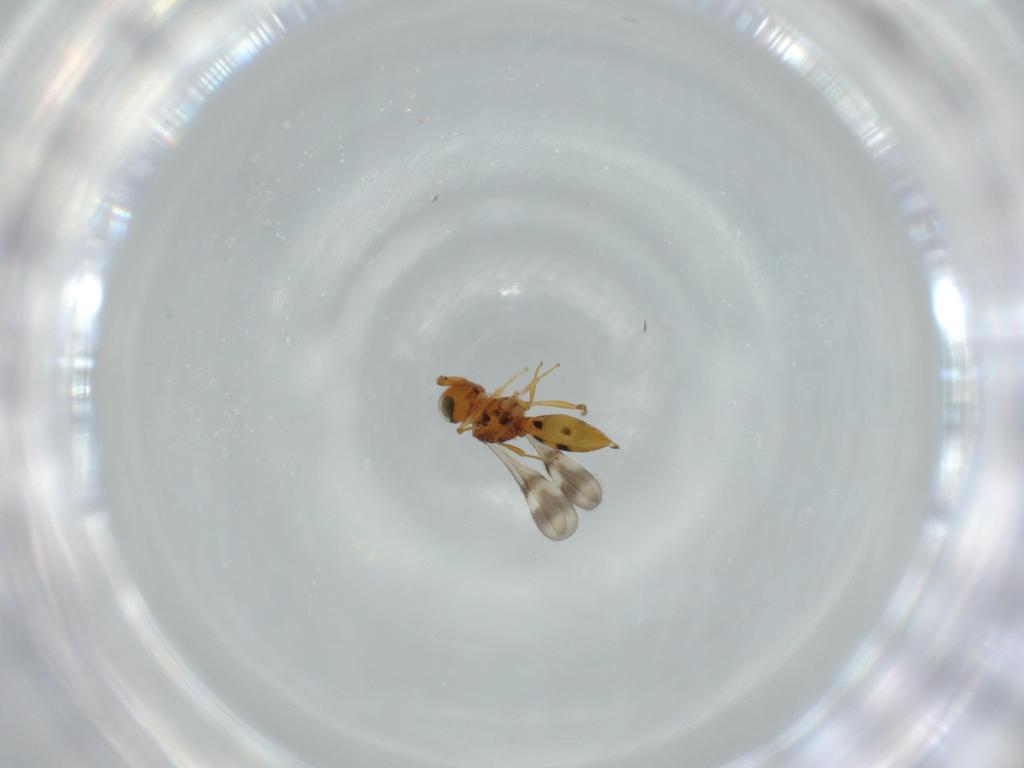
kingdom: Animalia
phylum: Arthropoda
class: Insecta
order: Hymenoptera
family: Scelionidae
